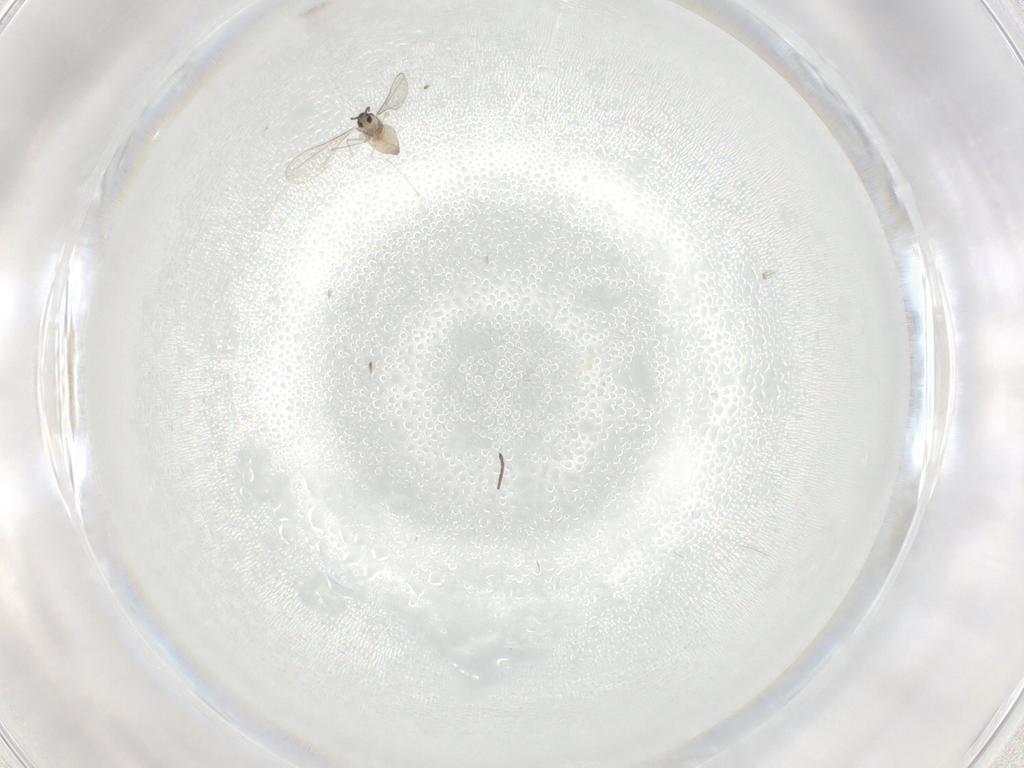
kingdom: Animalia
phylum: Arthropoda
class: Insecta
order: Diptera
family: Cecidomyiidae
